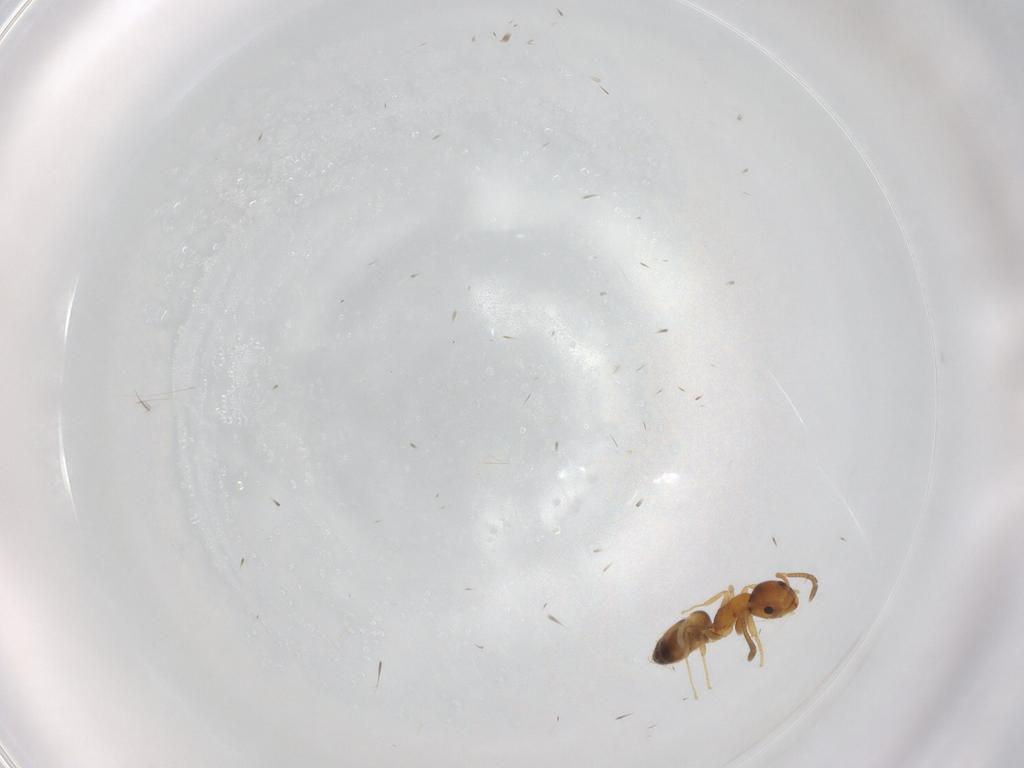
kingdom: Animalia
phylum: Arthropoda
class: Insecta
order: Hymenoptera
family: Formicidae
